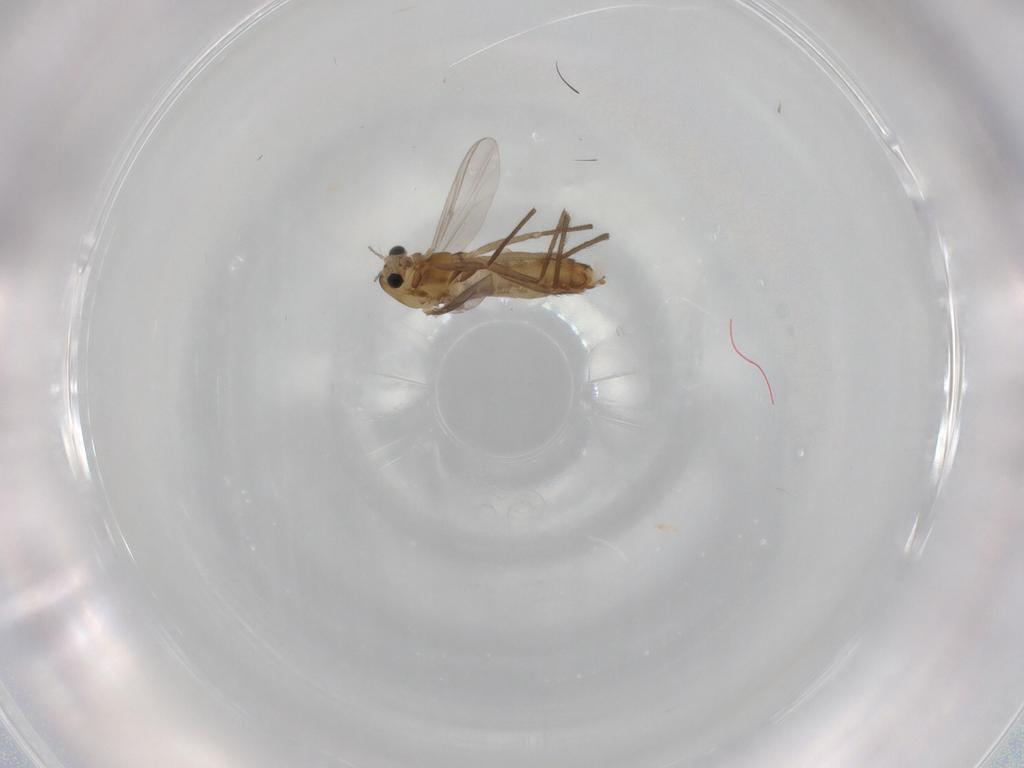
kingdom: Animalia
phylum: Arthropoda
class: Insecta
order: Diptera
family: Chironomidae
